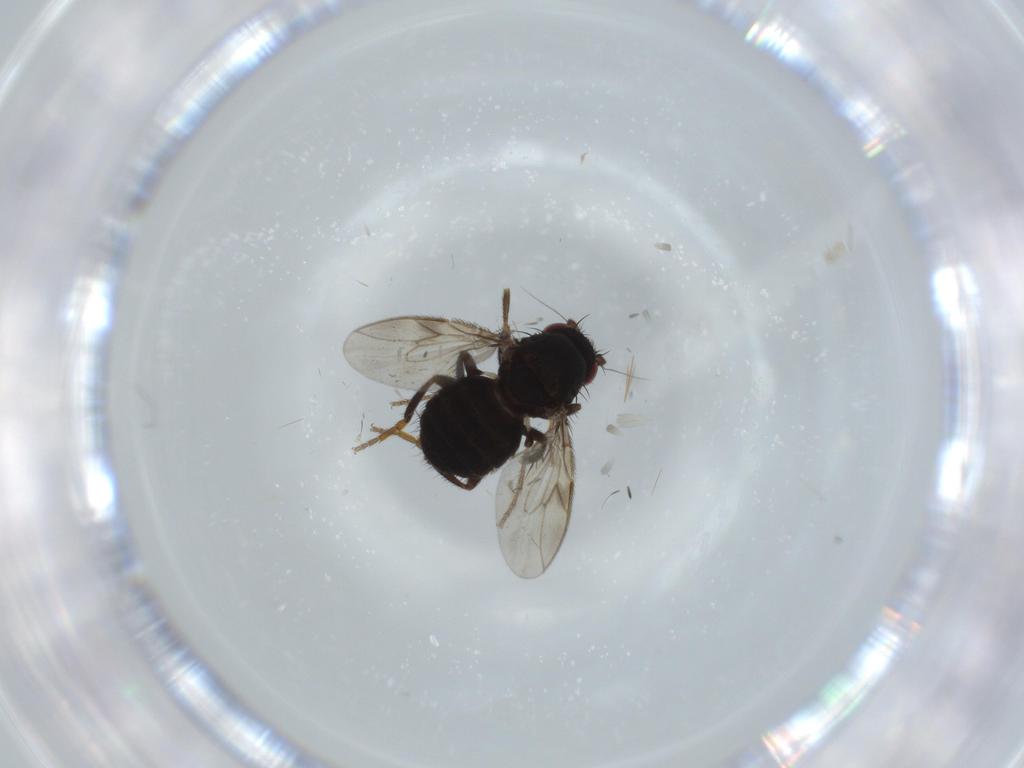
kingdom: Animalia
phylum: Arthropoda
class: Insecta
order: Diptera
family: Sphaeroceridae
